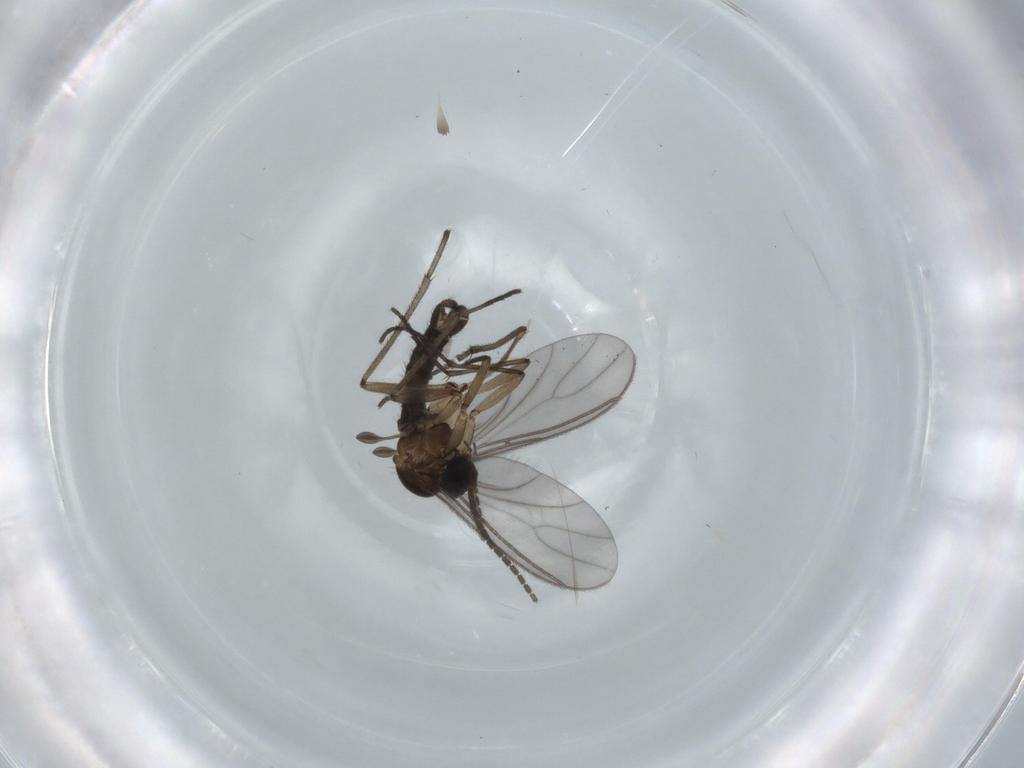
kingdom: Animalia
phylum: Arthropoda
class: Insecta
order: Diptera
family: Sciaridae
